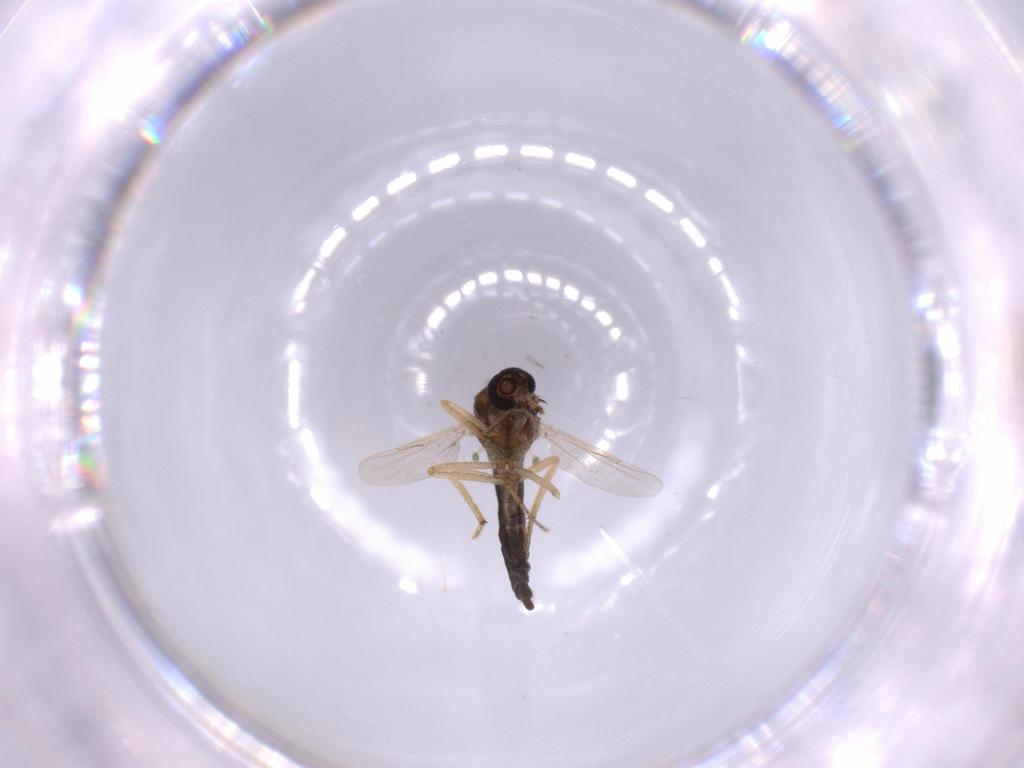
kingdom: Animalia
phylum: Arthropoda
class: Insecta
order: Diptera
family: Ceratopogonidae
